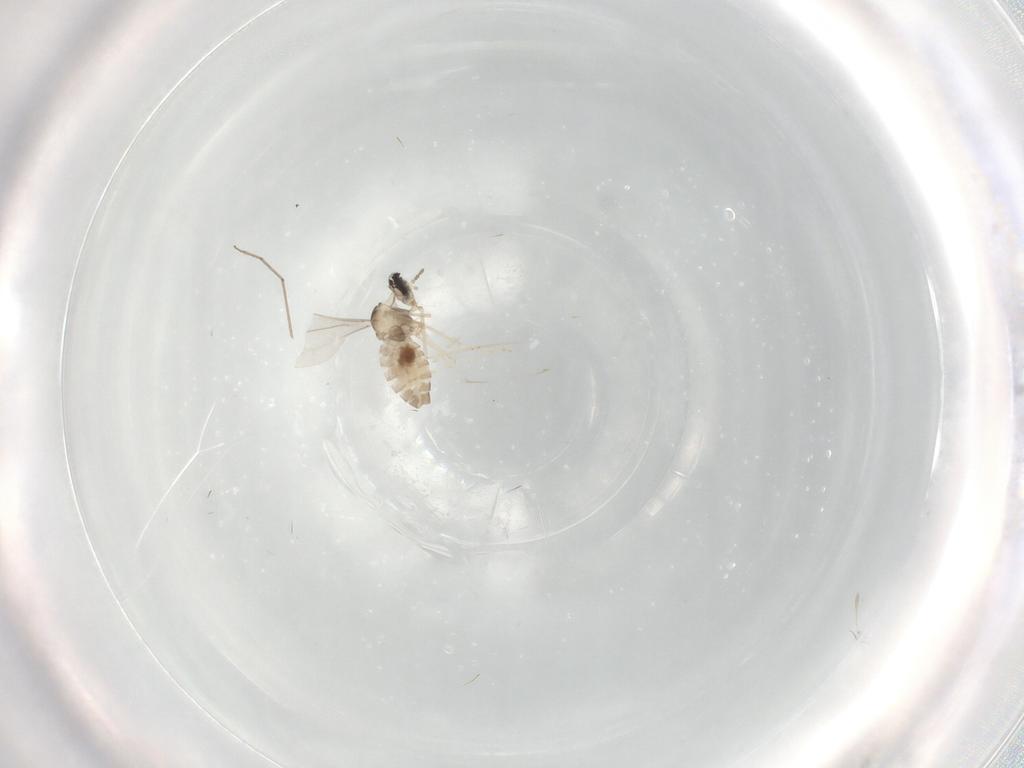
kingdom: Animalia
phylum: Arthropoda
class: Insecta
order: Diptera
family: Cecidomyiidae
